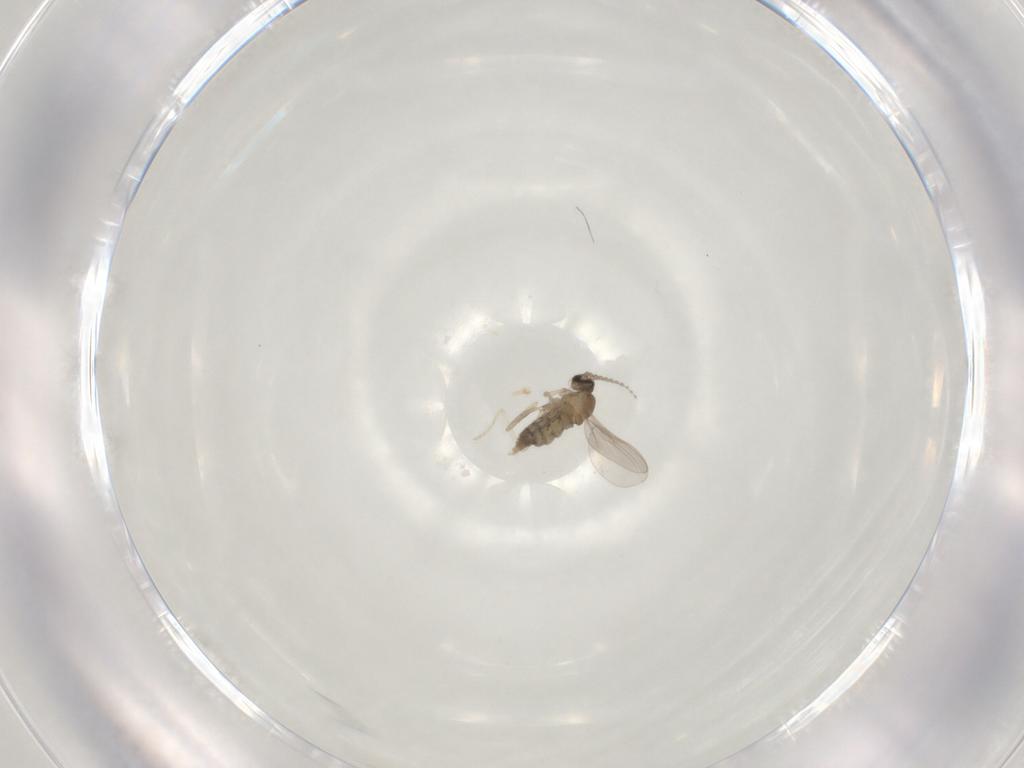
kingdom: Animalia
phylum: Arthropoda
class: Insecta
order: Diptera
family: Cecidomyiidae
